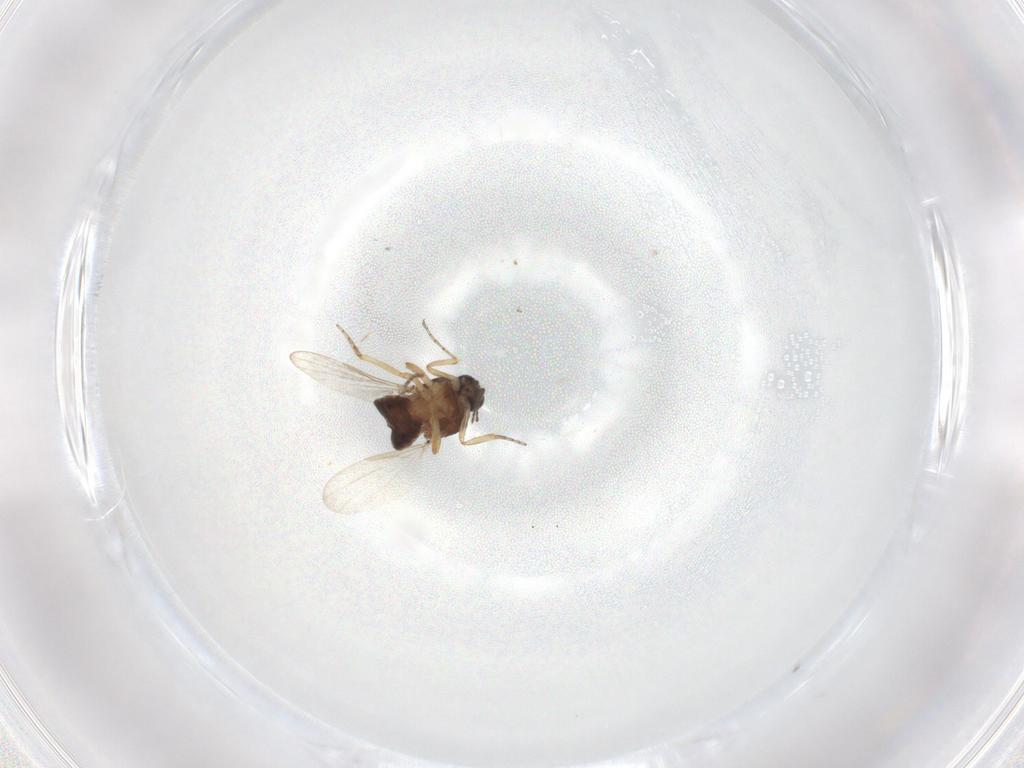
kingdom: Animalia
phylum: Arthropoda
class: Insecta
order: Diptera
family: Ceratopogonidae
